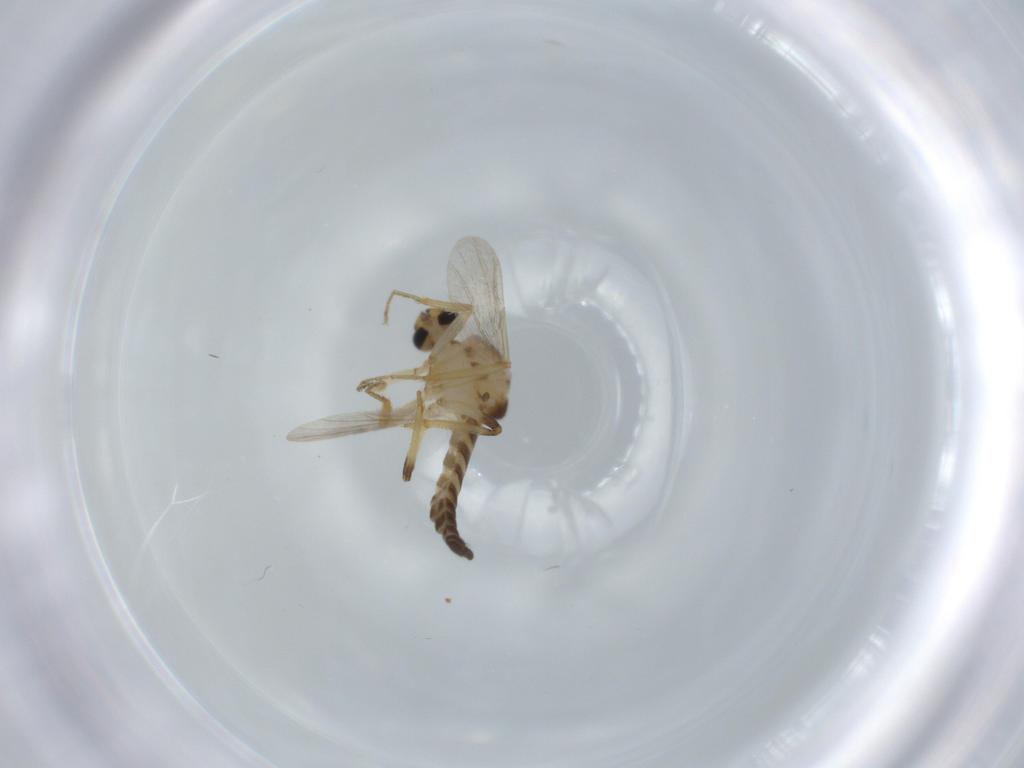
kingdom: Animalia
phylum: Arthropoda
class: Insecta
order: Diptera
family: Ceratopogonidae
